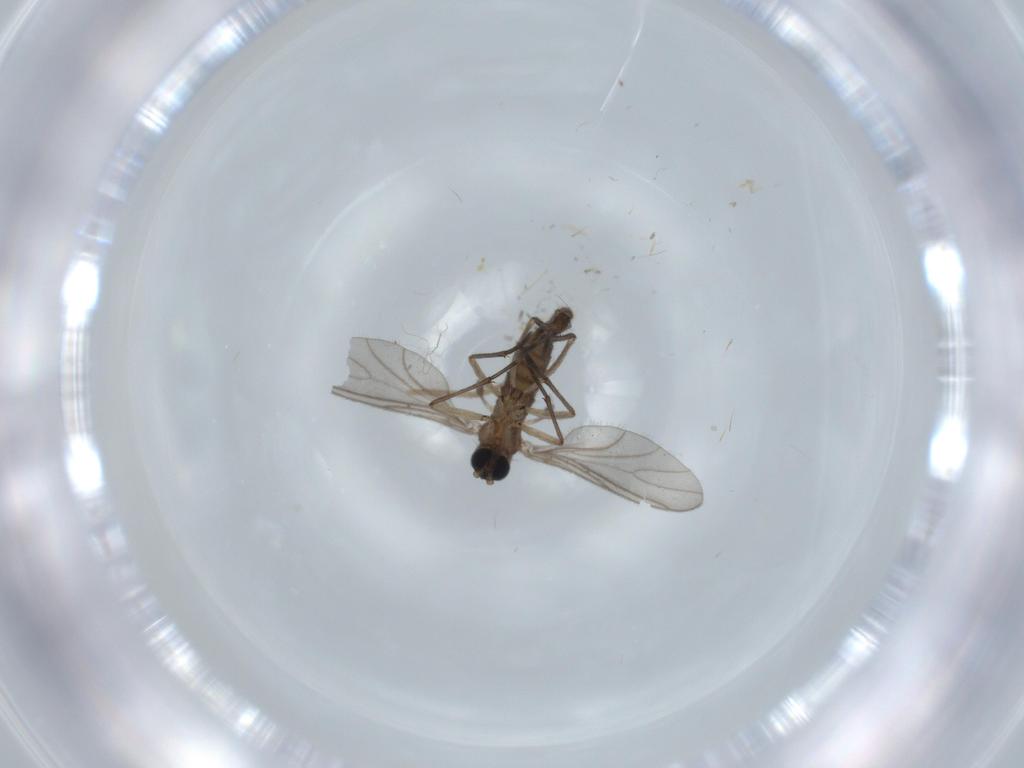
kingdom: Animalia
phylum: Arthropoda
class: Insecta
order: Diptera
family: Sciaridae
